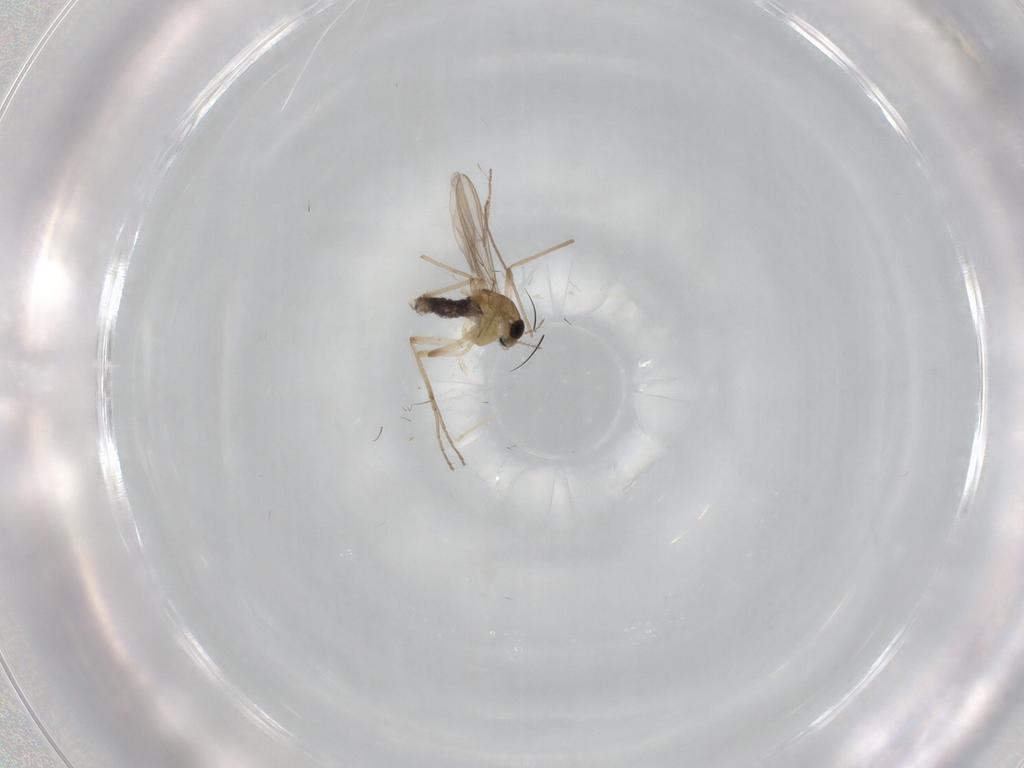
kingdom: Animalia
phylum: Arthropoda
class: Insecta
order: Diptera
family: Chironomidae
